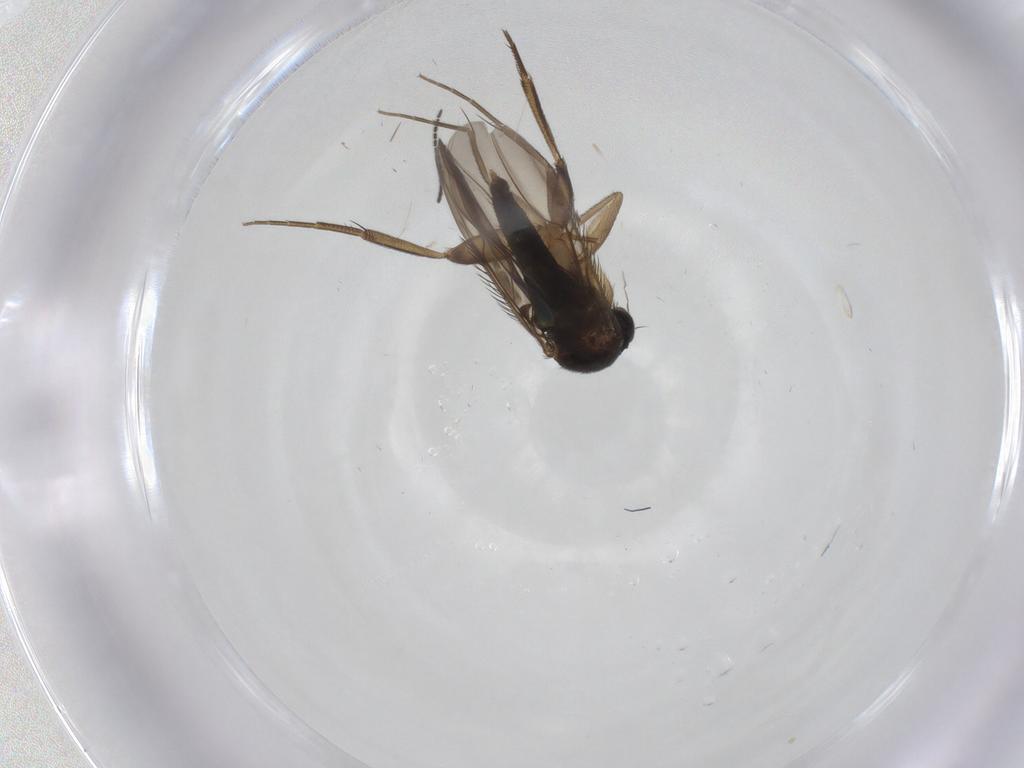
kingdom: Animalia
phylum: Arthropoda
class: Insecta
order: Diptera
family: Phoridae
